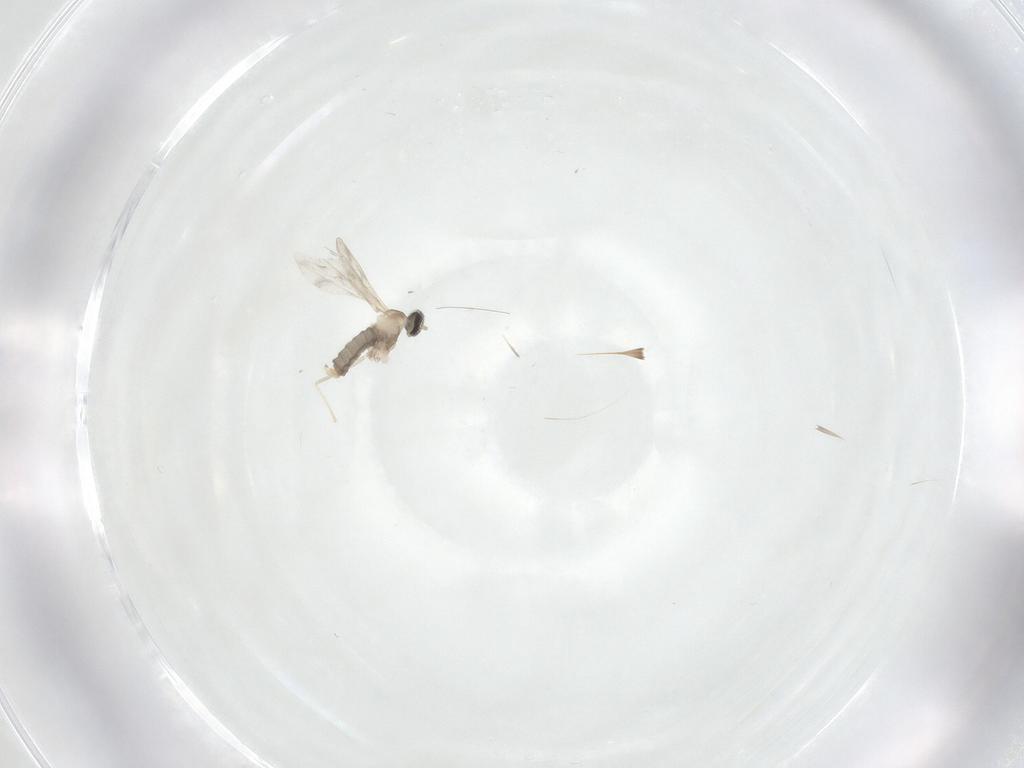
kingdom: Animalia
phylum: Arthropoda
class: Insecta
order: Diptera
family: Cecidomyiidae
